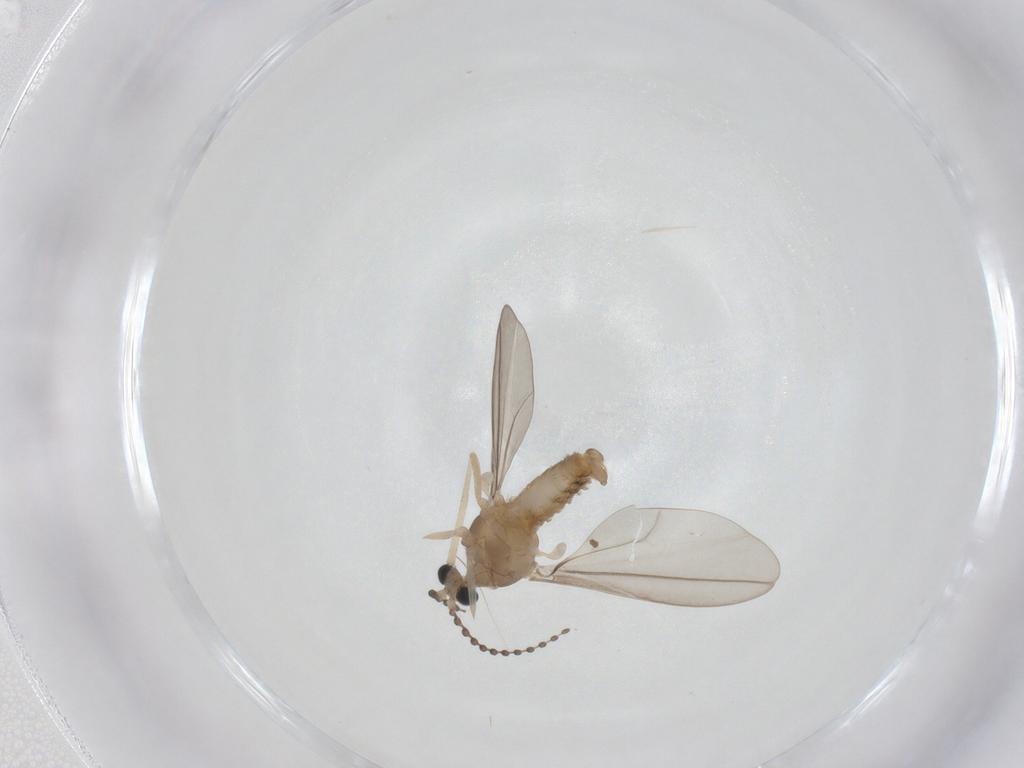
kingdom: Animalia
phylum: Arthropoda
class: Insecta
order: Diptera
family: Cecidomyiidae
